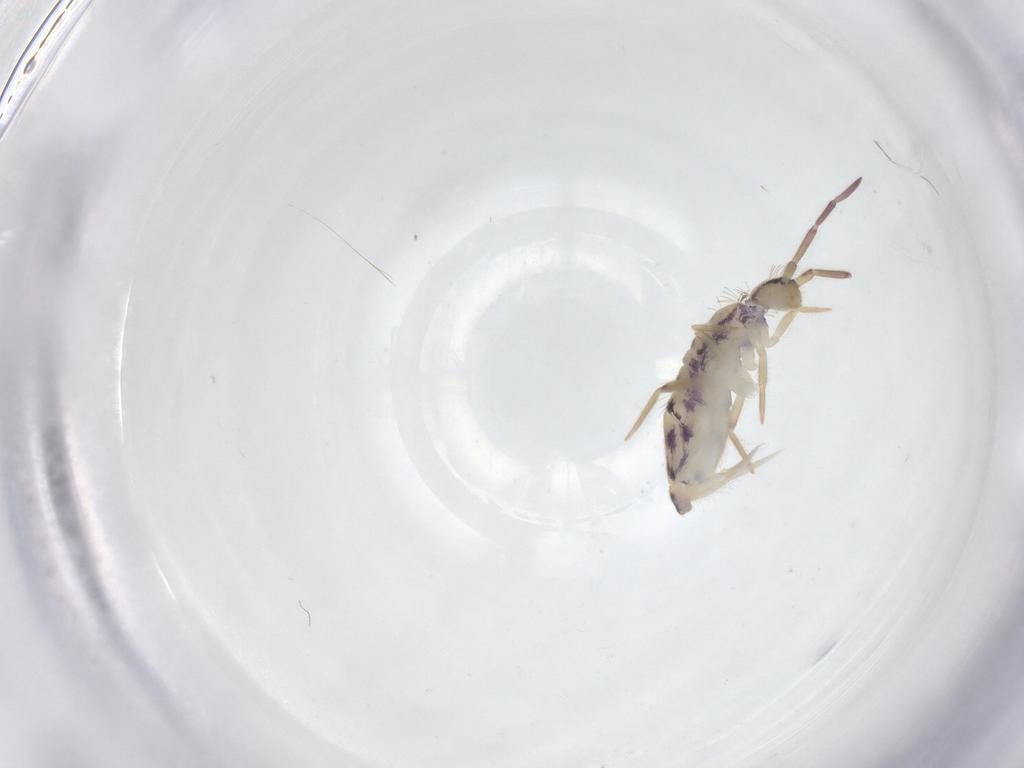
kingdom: Animalia
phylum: Arthropoda
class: Collembola
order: Entomobryomorpha
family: Entomobryidae
